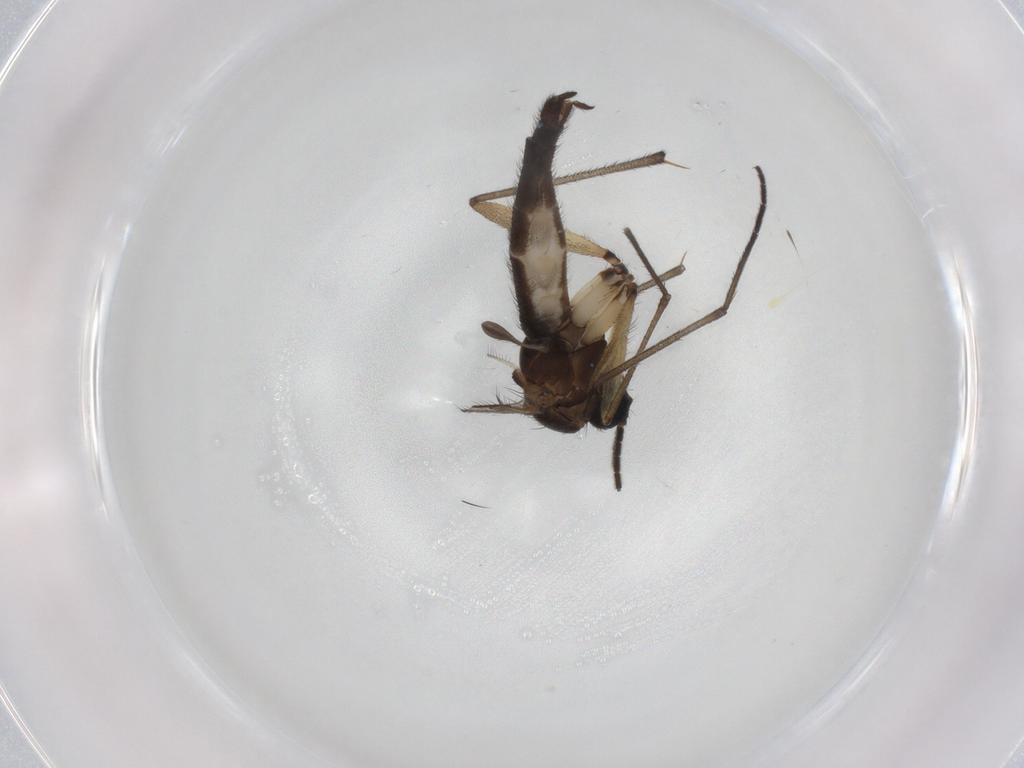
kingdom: Animalia
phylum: Arthropoda
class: Insecta
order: Diptera
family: Sciaridae
